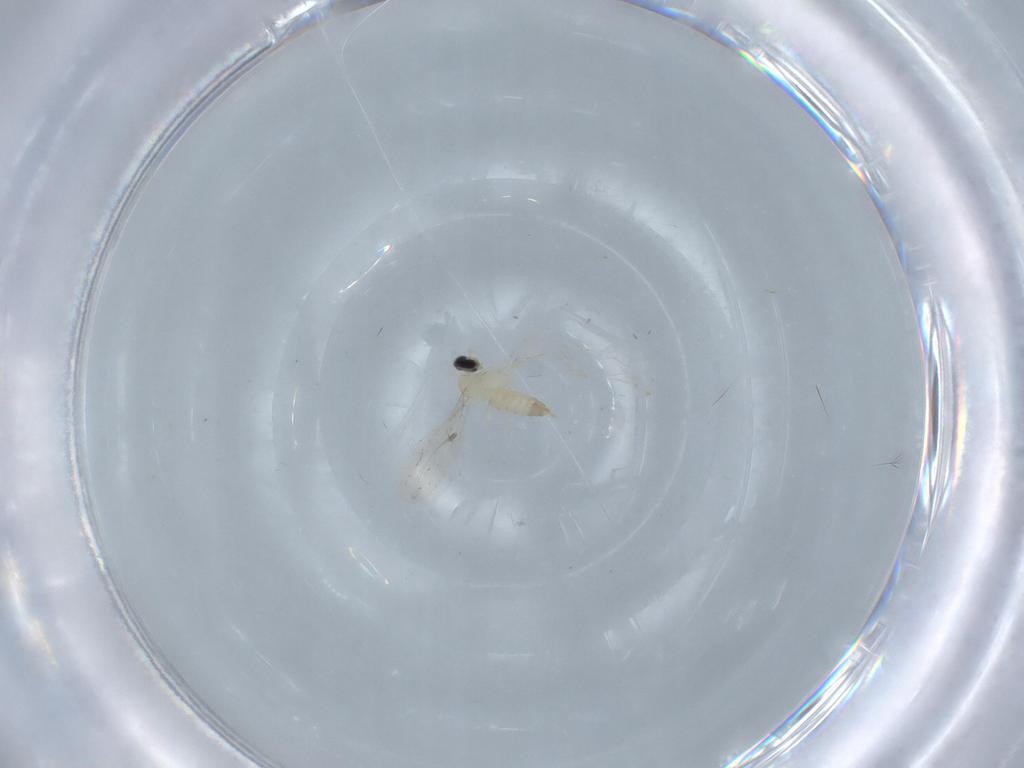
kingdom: Animalia
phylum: Arthropoda
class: Insecta
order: Diptera
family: Cecidomyiidae
